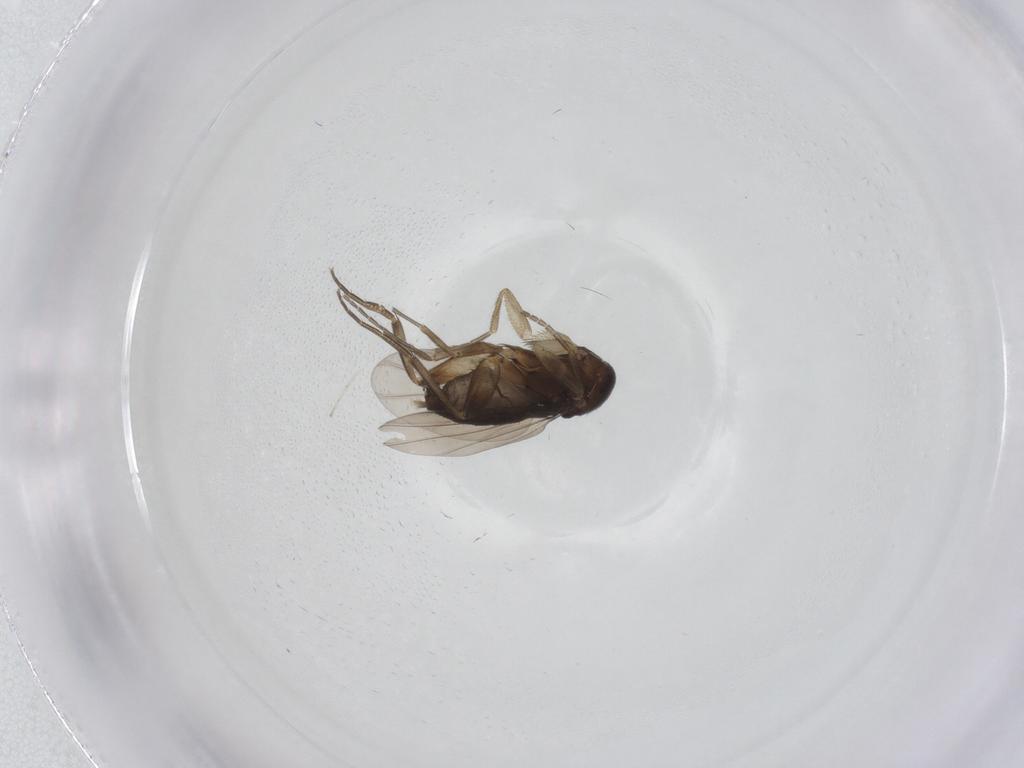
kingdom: Animalia
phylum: Arthropoda
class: Insecta
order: Diptera
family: Phoridae
